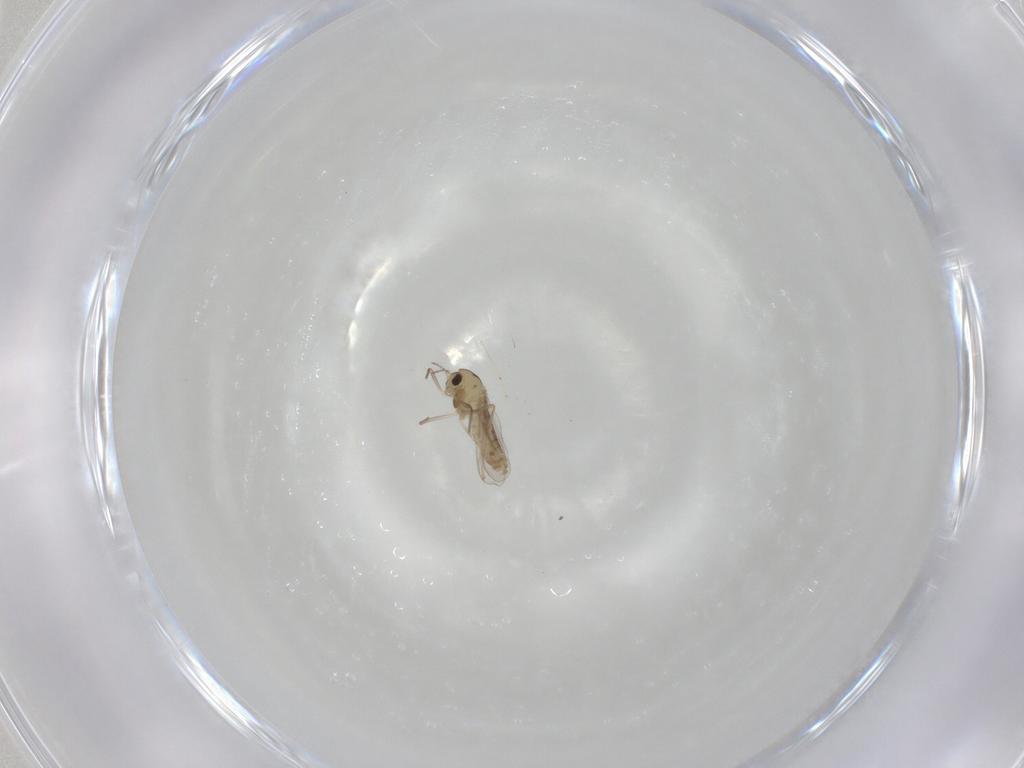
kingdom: Animalia
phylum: Arthropoda
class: Insecta
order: Diptera
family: Chironomidae
